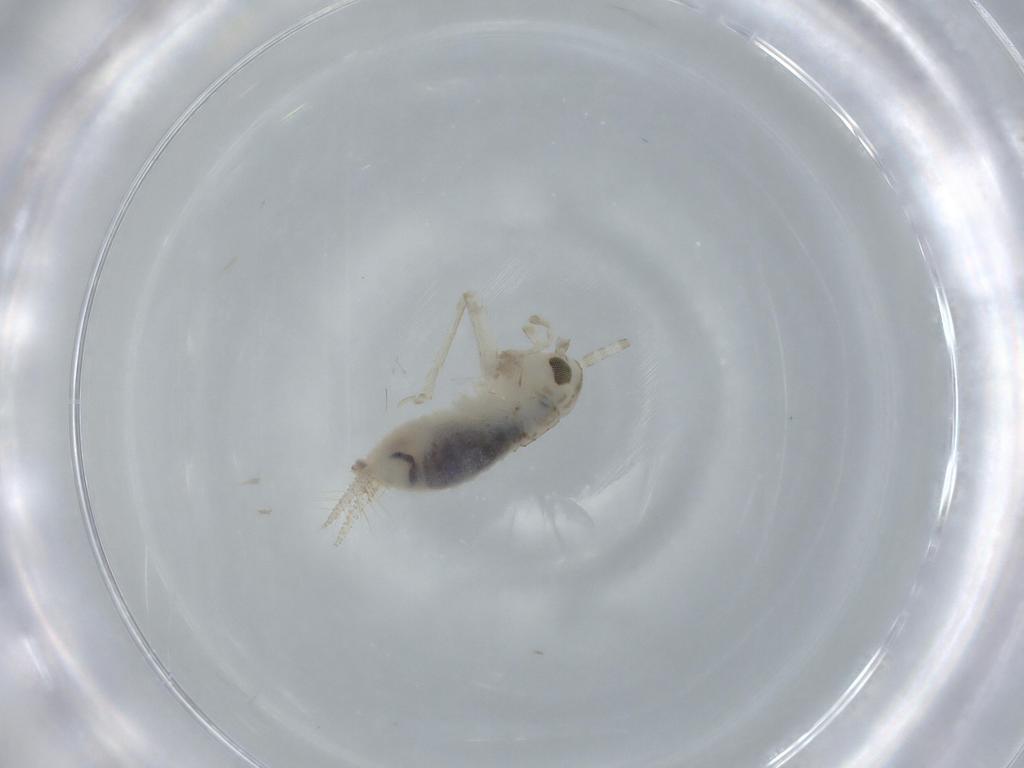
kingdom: Animalia
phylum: Arthropoda
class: Insecta
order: Orthoptera
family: Trigonidiidae
